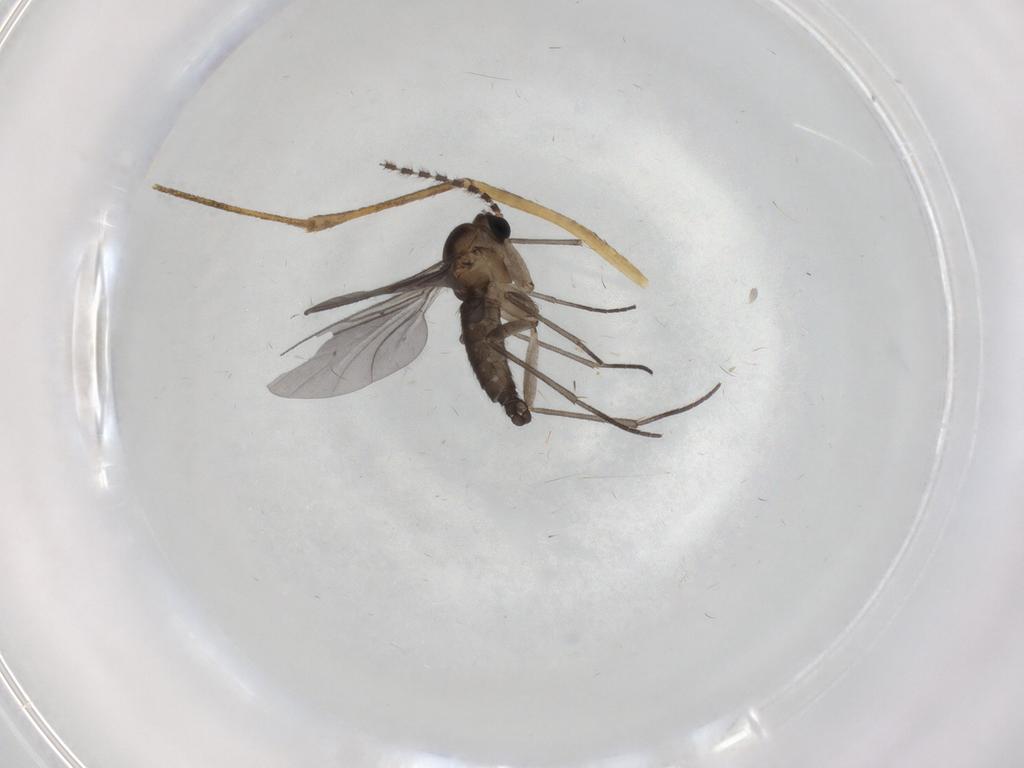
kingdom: Animalia
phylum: Arthropoda
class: Insecta
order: Diptera
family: Sciaridae
